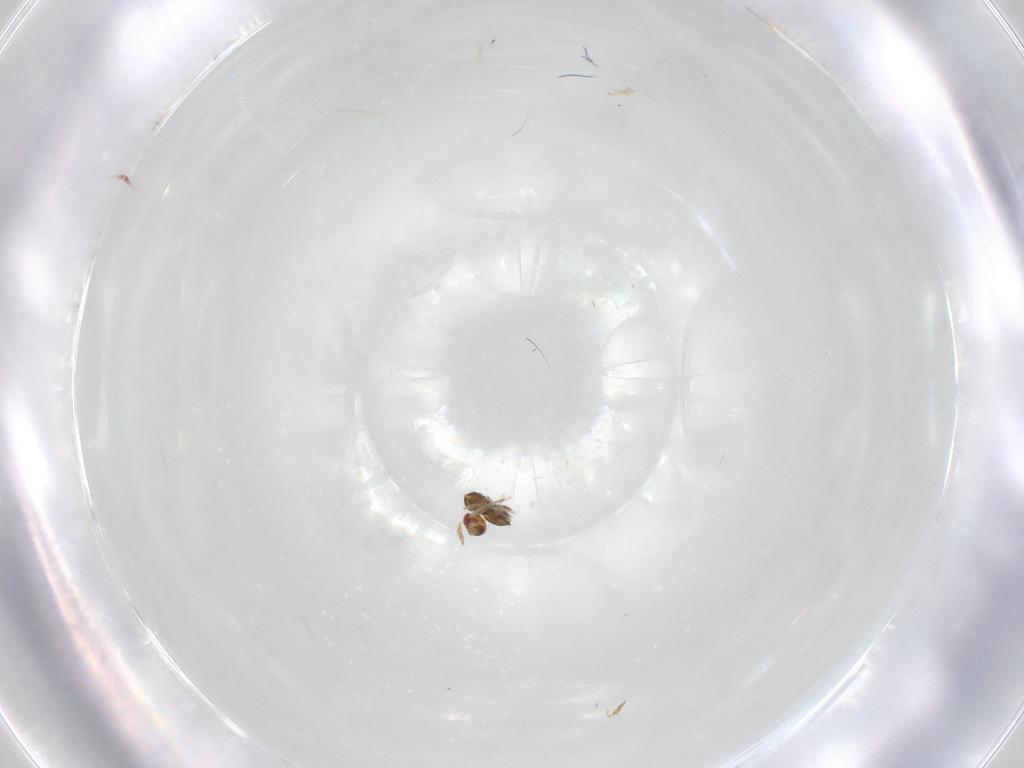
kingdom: Animalia
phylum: Arthropoda
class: Insecta
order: Hymenoptera
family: Trichogrammatidae
